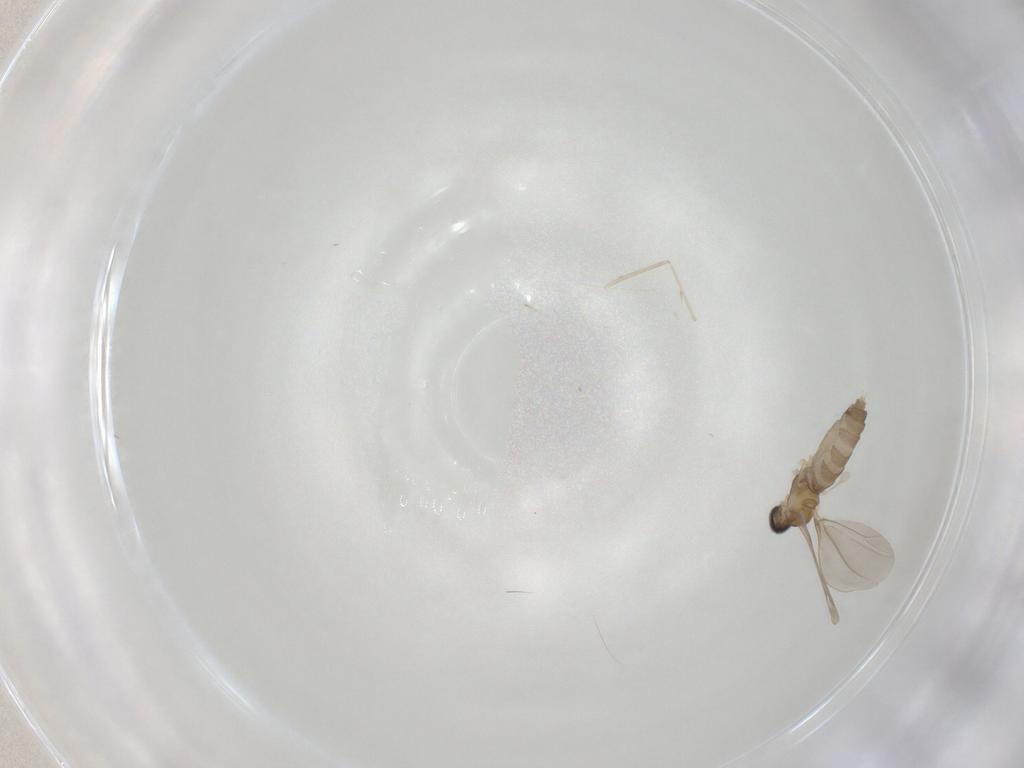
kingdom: Animalia
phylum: Arthropoda
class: Insecta
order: Diptera
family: Cecidomyiidae
